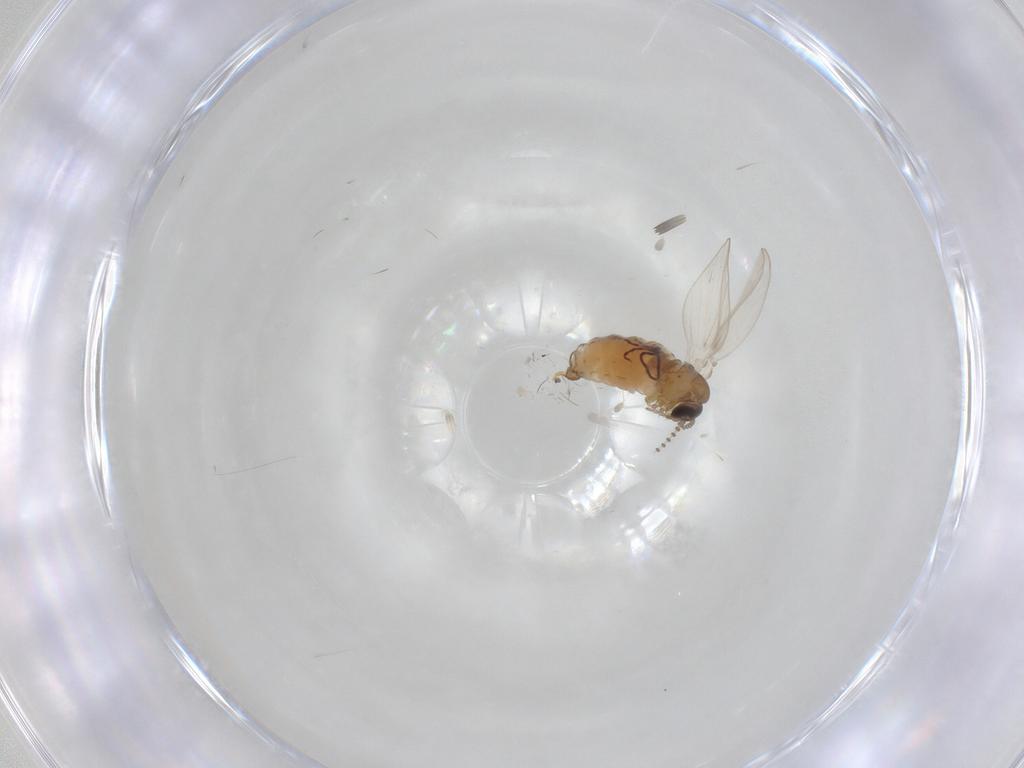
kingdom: Animalia
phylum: Arthropoda
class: Insecta
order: Diptera
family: Psychodidae
